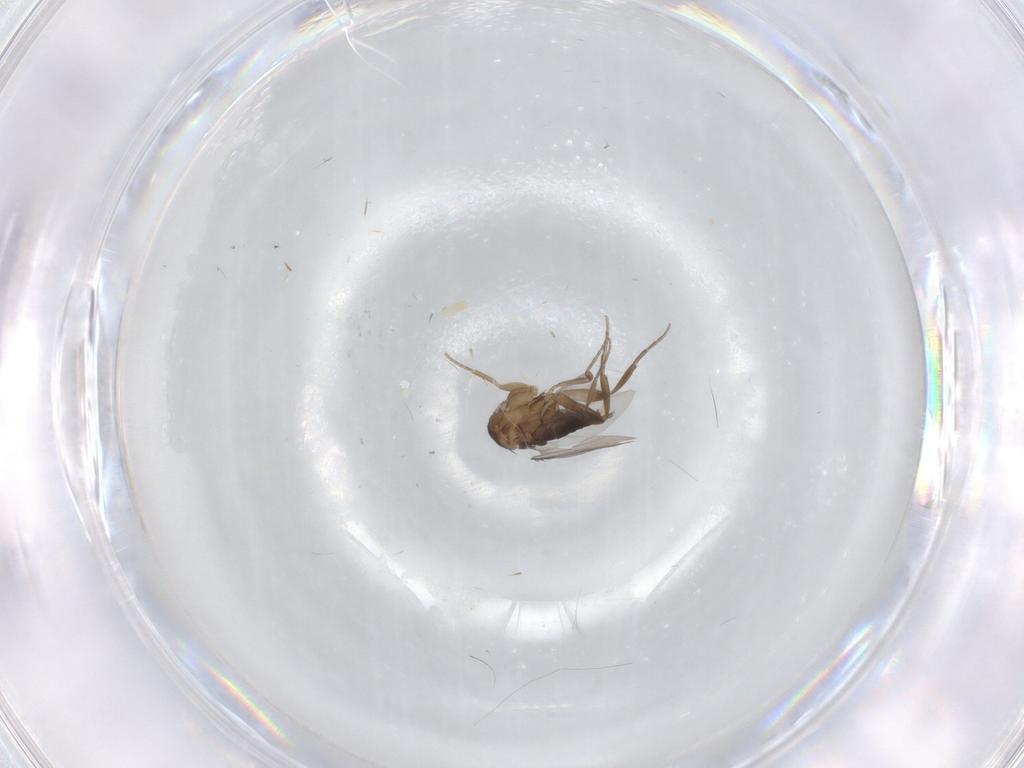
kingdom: Animalia
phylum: Arthropoda
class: Insecta
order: Diptera
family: Phoridae
